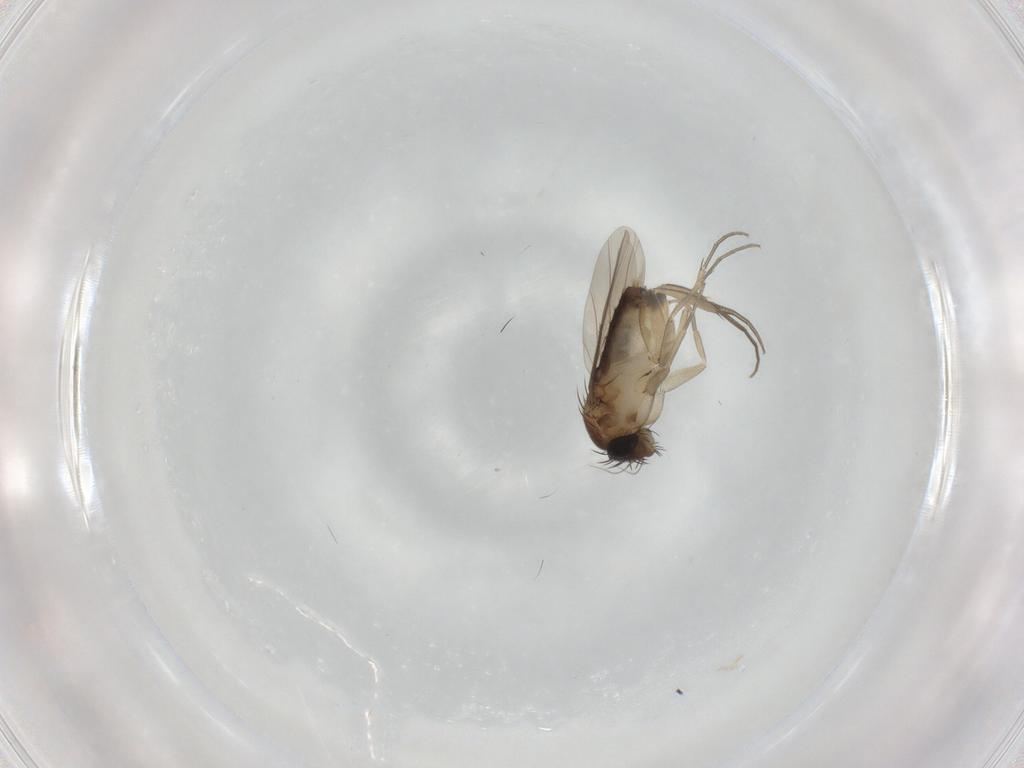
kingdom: Animalia
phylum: Arthropoda
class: Insecta
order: Diptera
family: Phoridae
